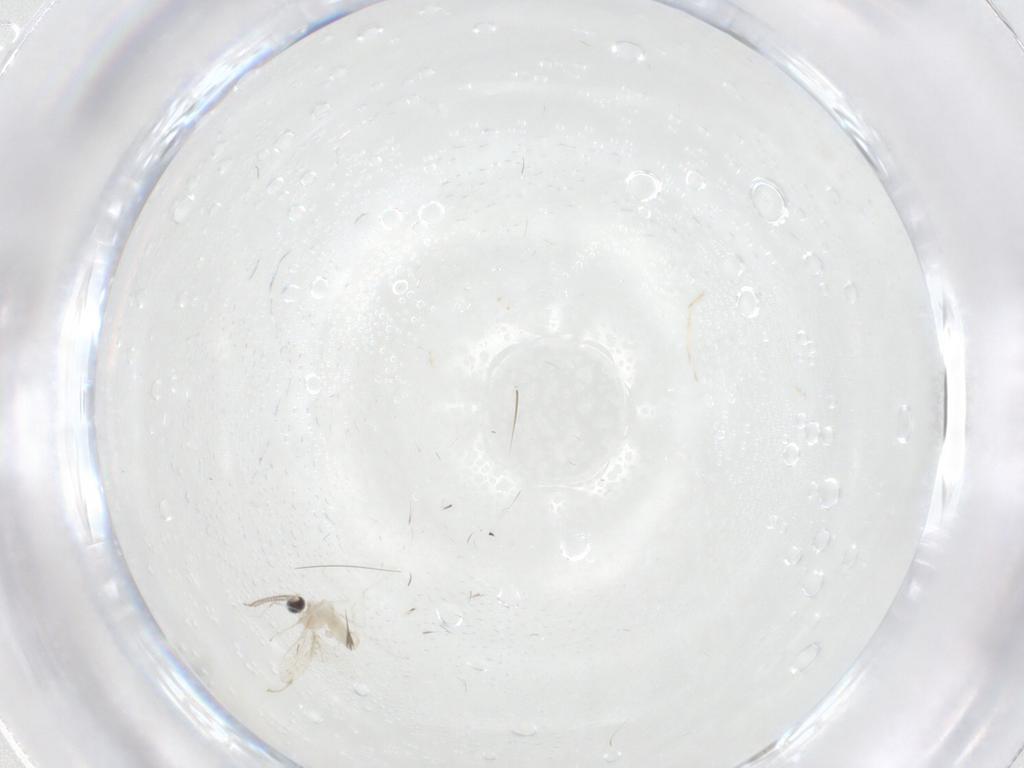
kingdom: Animalia
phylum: Arthropoda
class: Insecta
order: Diptera
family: Cecidomyiidae
